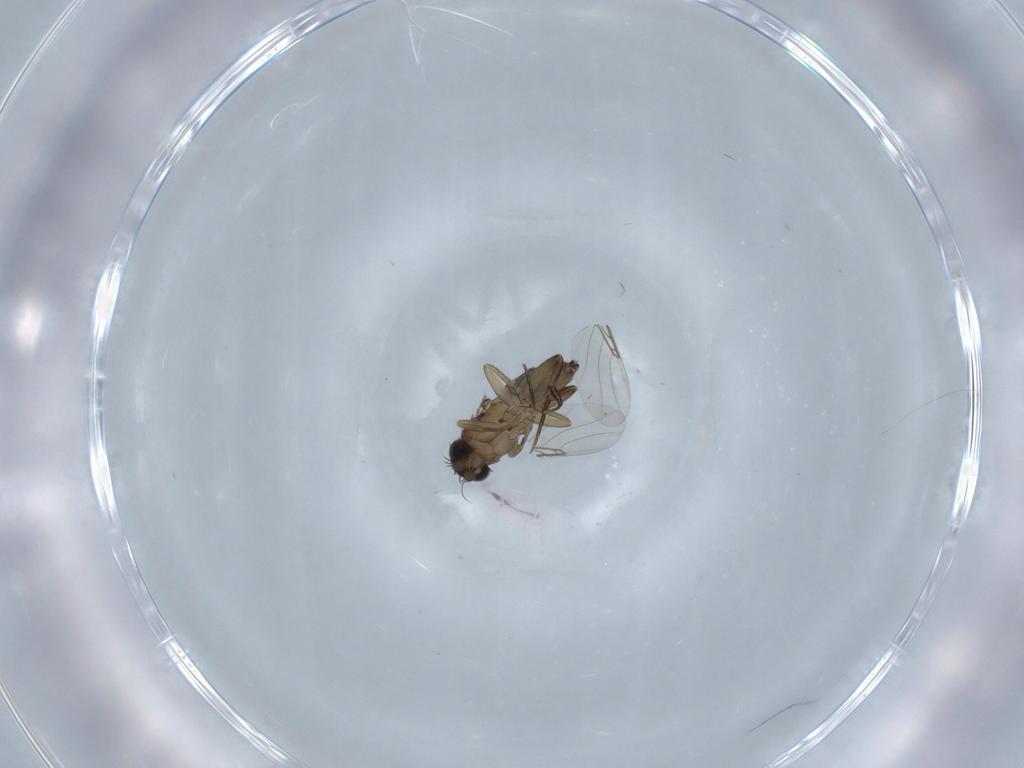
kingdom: Animalia
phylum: Arthropoda
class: Insecta
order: Diptera
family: Phoridae
